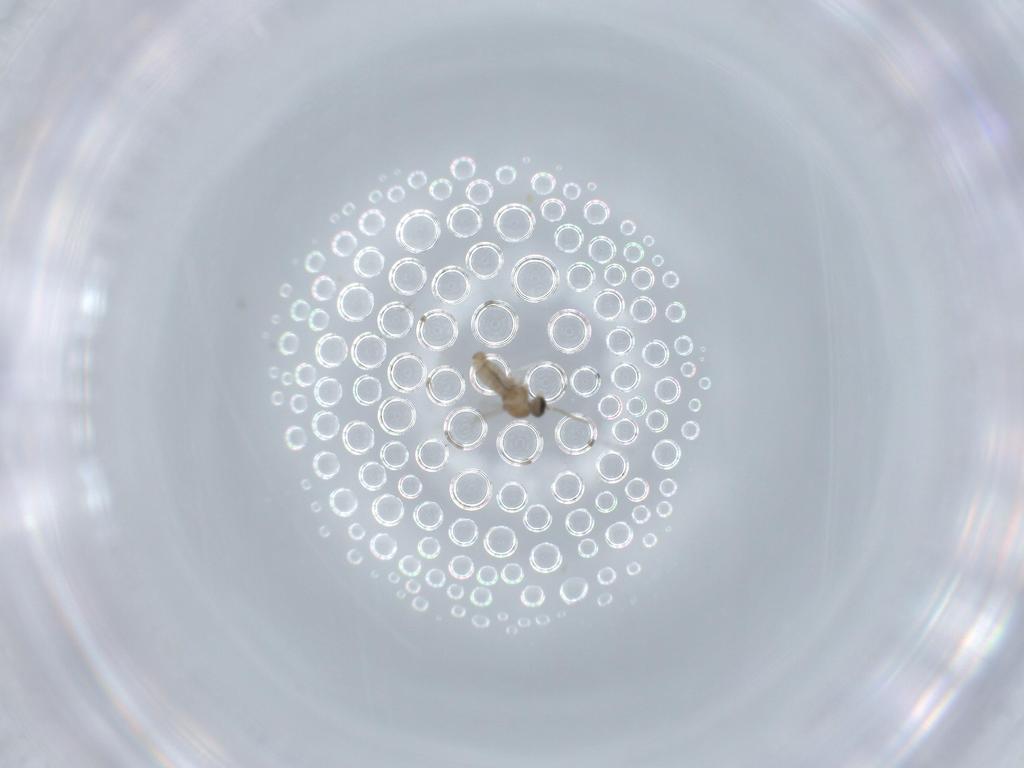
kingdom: Animalia
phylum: Arthropoda
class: Insecta
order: Diptera
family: Cecidomyiidae
